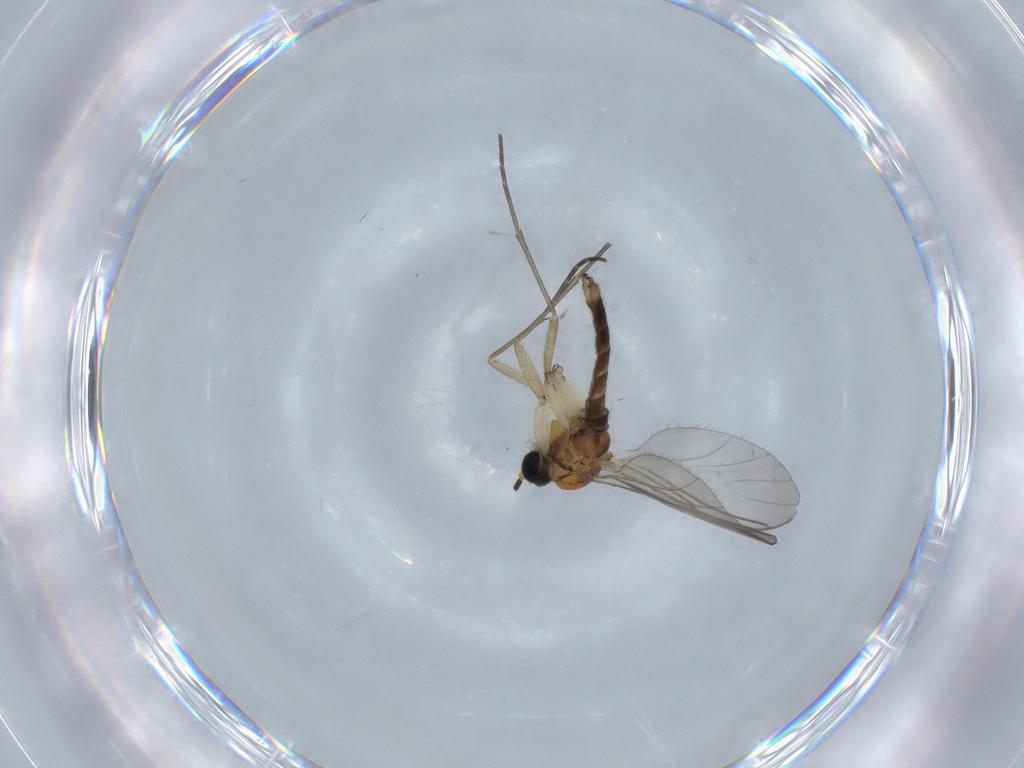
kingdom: Animalia
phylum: Arthropoda
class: Insecta
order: Diptera
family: Sciaridae
